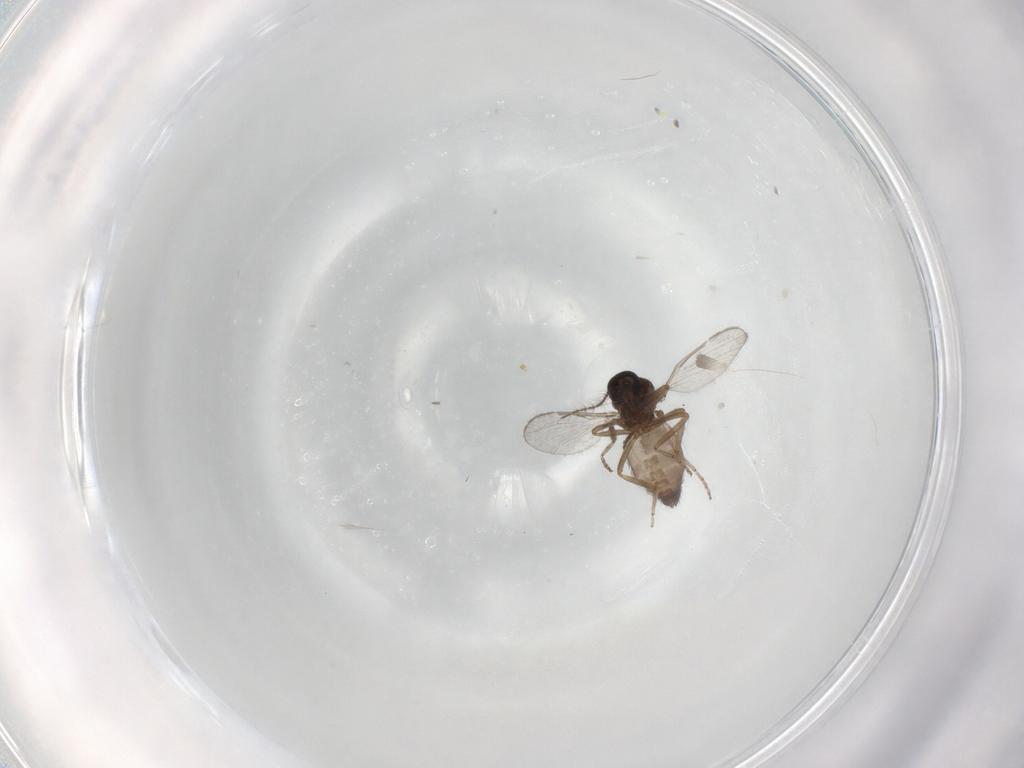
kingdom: Animalia
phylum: Arthropoda
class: Insecta
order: Diptera
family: Ceratopogonidae
